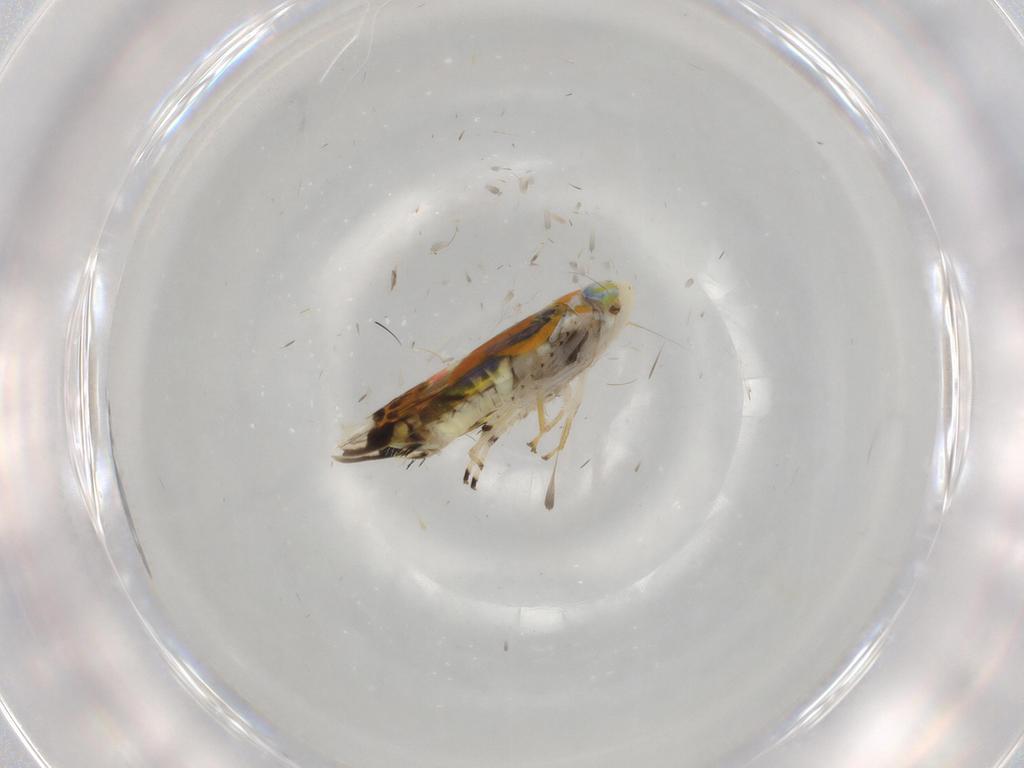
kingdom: Animalia
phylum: Arthropoda
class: Insecta
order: Hemiptera
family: Cicadellidae
